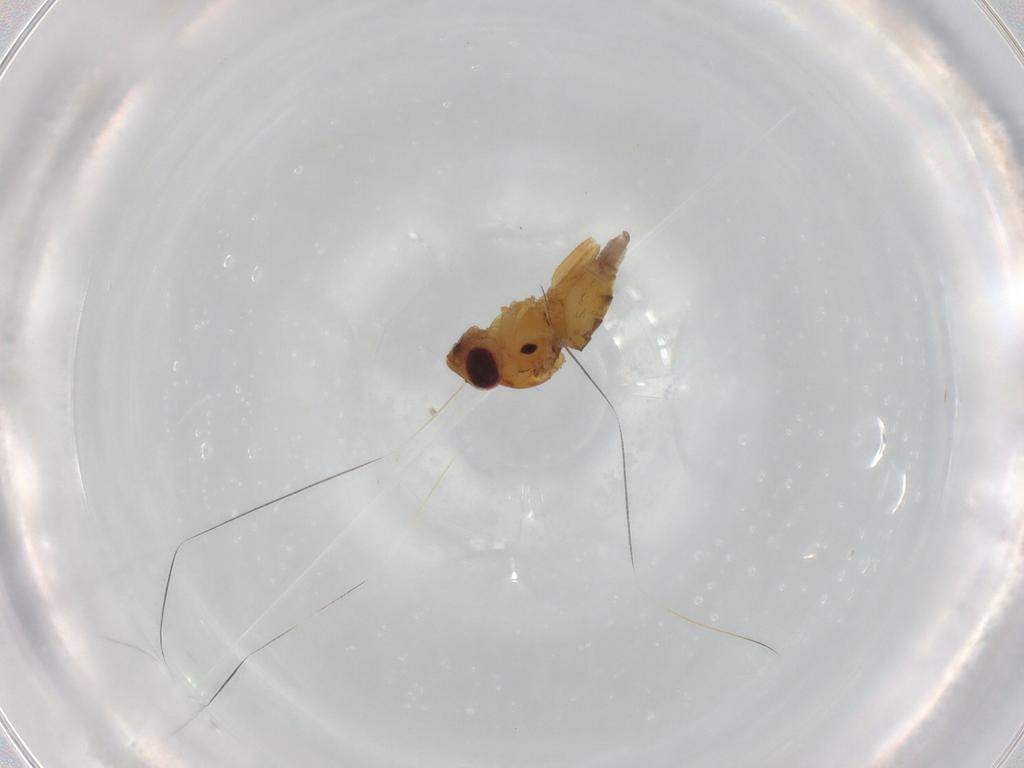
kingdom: Animalia
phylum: Arthropoda
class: Insecta
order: Diptera
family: Chloropidae
